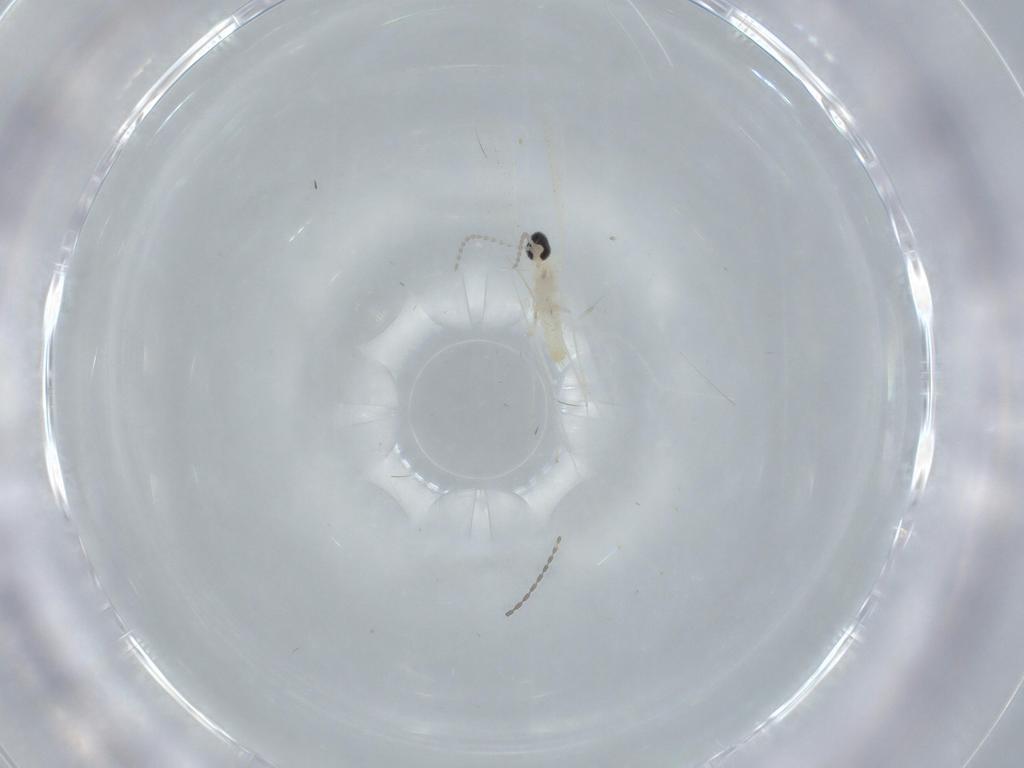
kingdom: Animalia
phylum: Arthropoda
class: Insecta
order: Diptera
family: Cecidomyiidae
